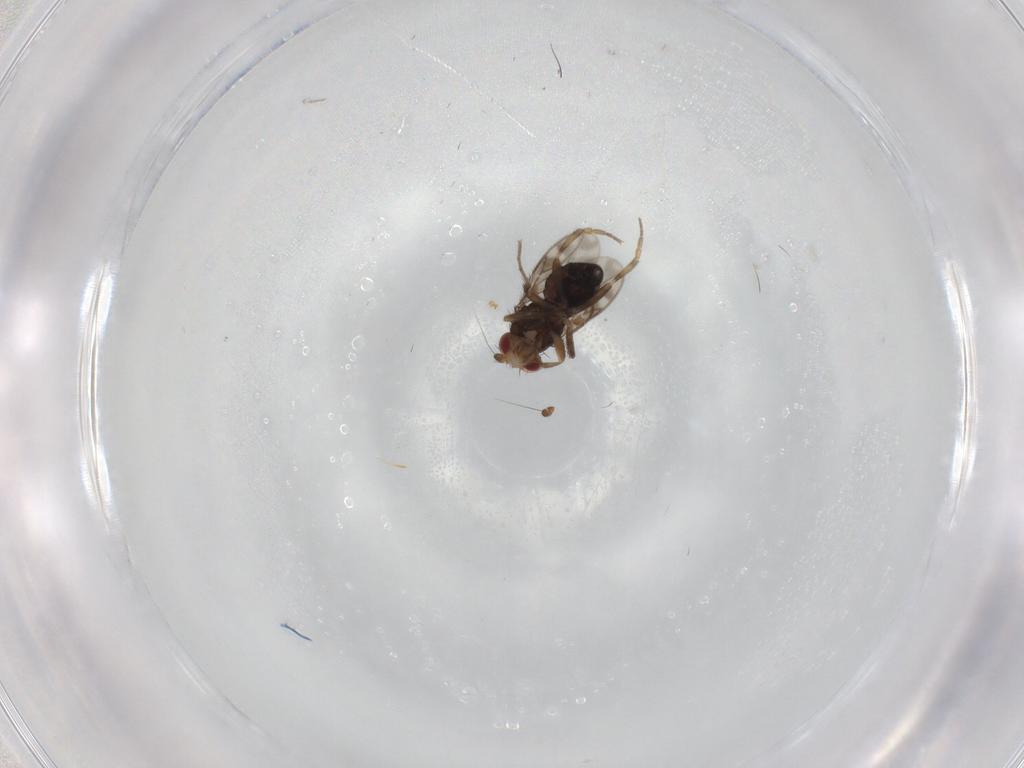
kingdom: Animalia
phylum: Arthropoda
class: Insecta
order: Diptera
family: Sphaeroceridae
